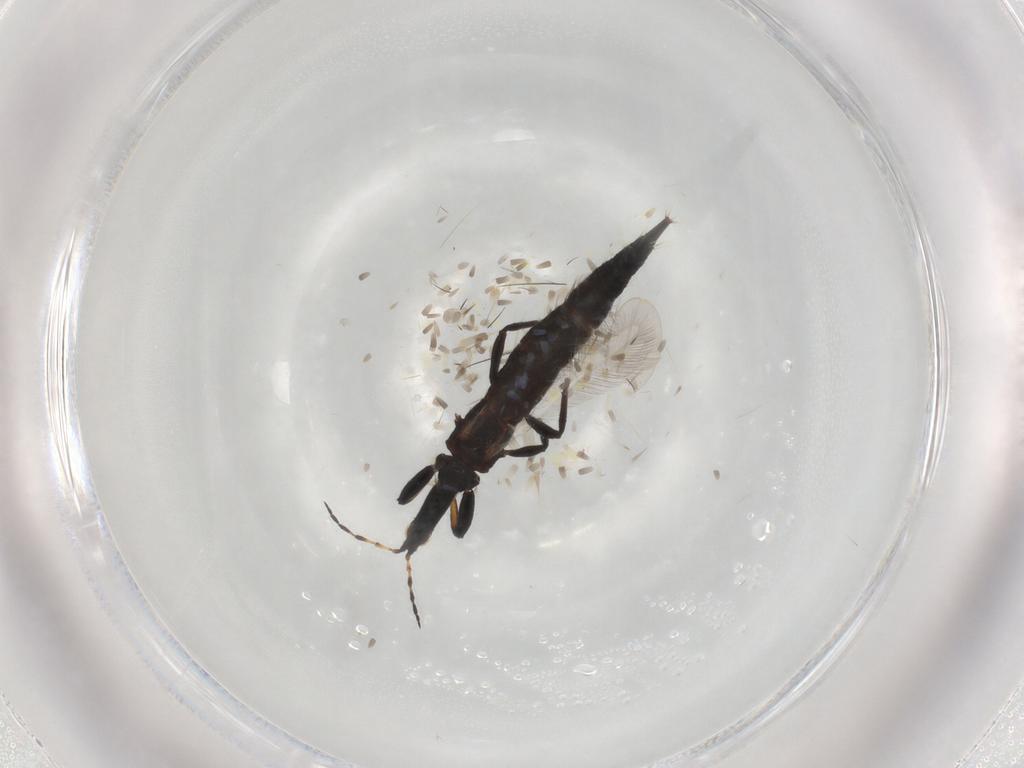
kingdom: Animalia
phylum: Arthropoda
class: Insecta
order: Thysanoptera
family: Phlaeothripidae
